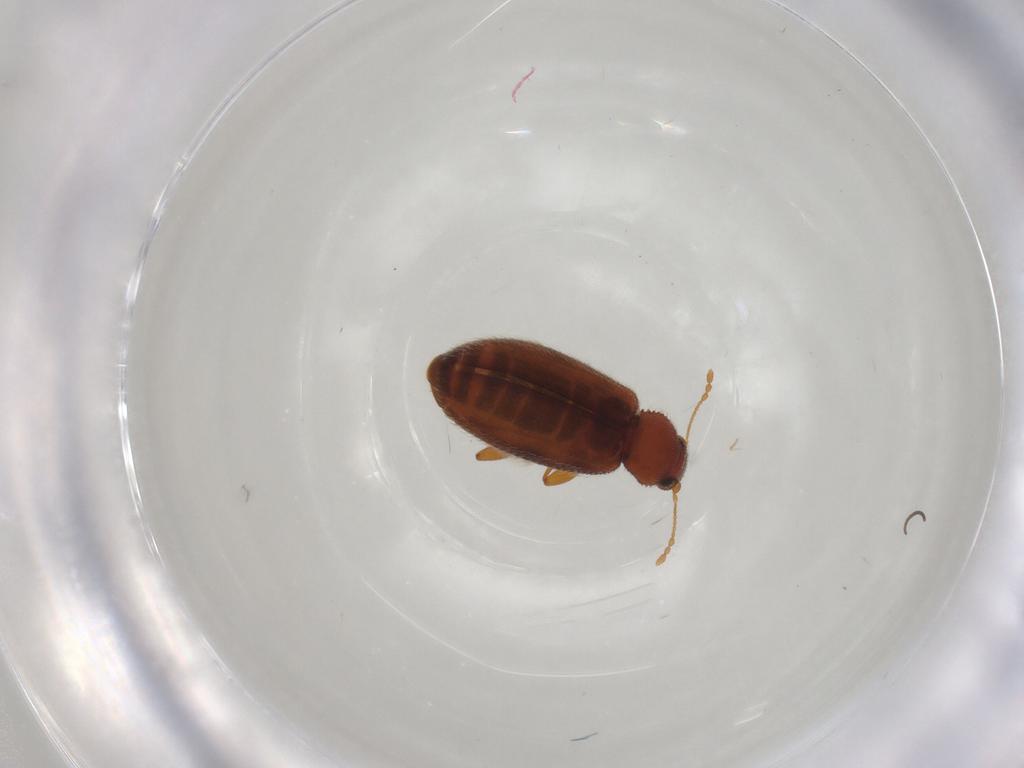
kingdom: Animalia
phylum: Arthropoda
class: Insecta
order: Coleoptera
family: Latridiidae
